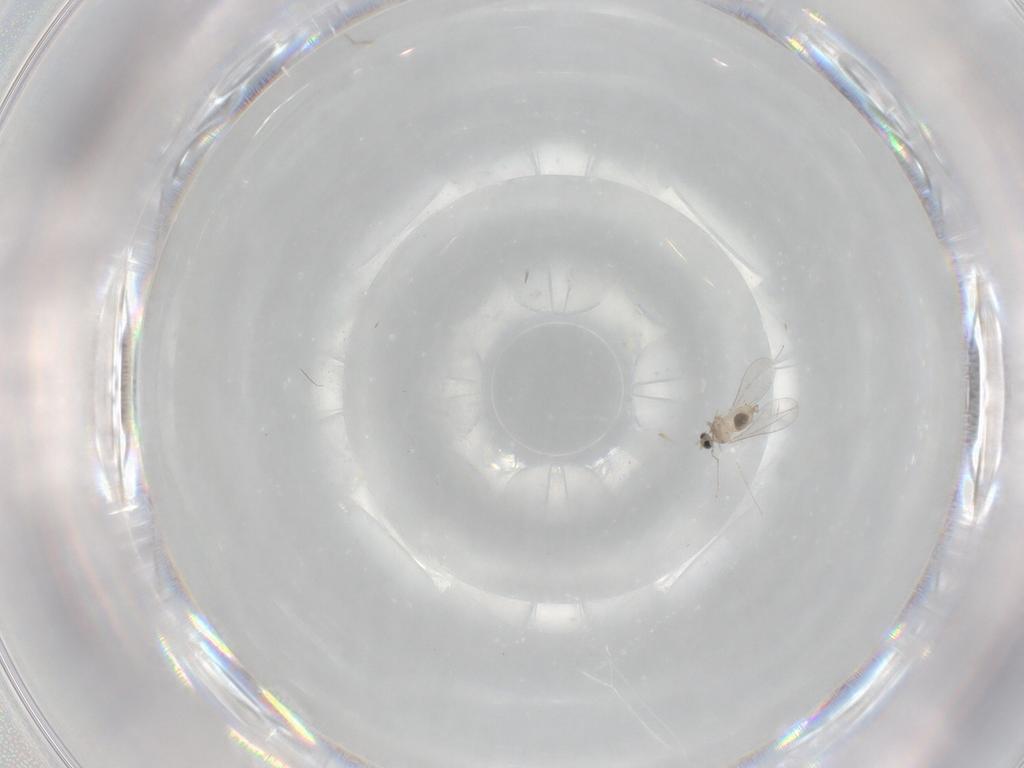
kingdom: Animalia
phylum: Arthropoda
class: Insecta
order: Diptera
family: Cecidomyiidae
